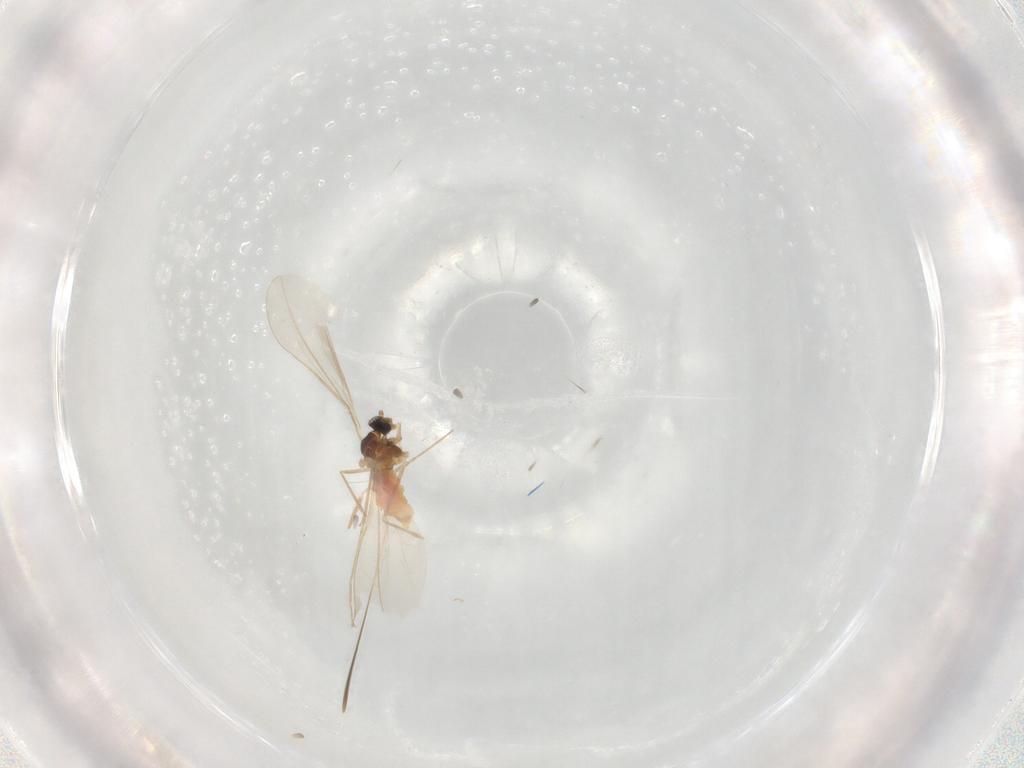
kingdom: Animalia
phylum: Arthropoda
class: Insecta
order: Diptera
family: Cecidomyiidae
